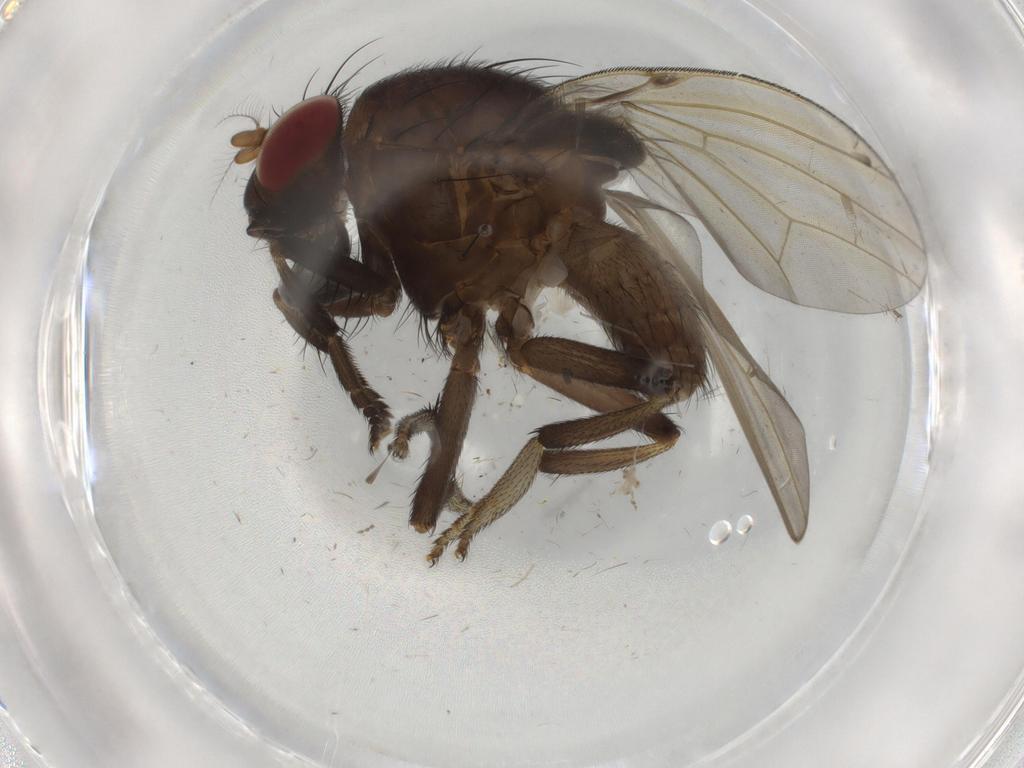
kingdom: Animalia
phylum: Arthropoda
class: Insecta
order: Diptera
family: Lauxaniidae
